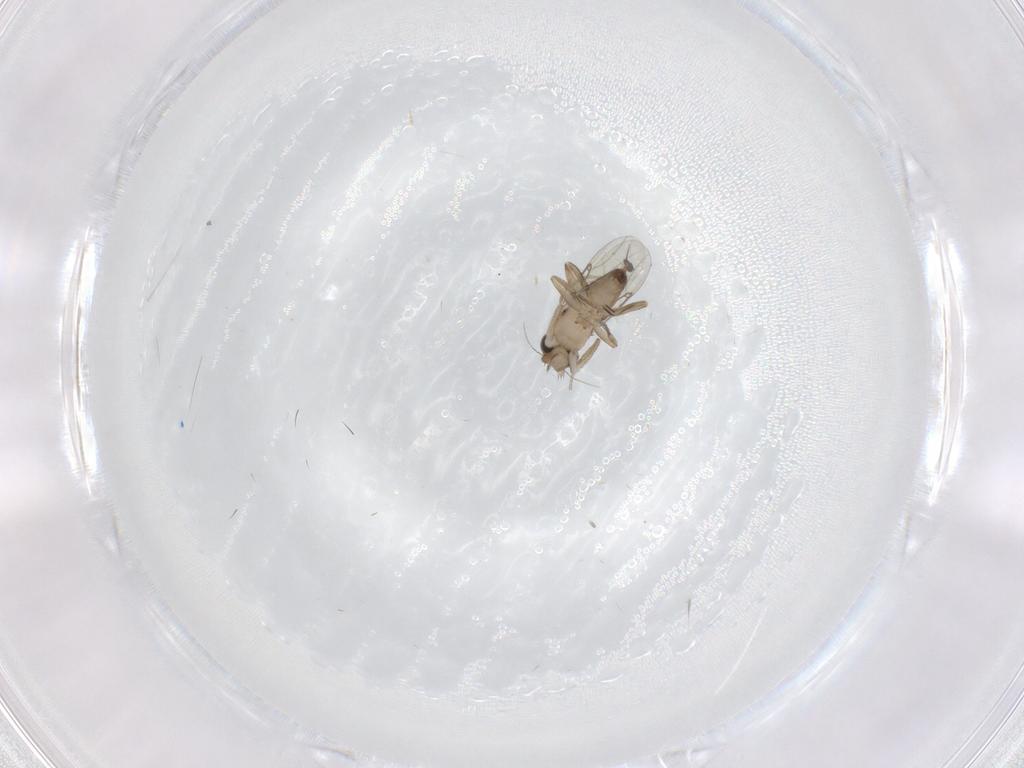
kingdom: Animalia
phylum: Arthropoda
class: Insecta
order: Diptera
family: Phoridae
